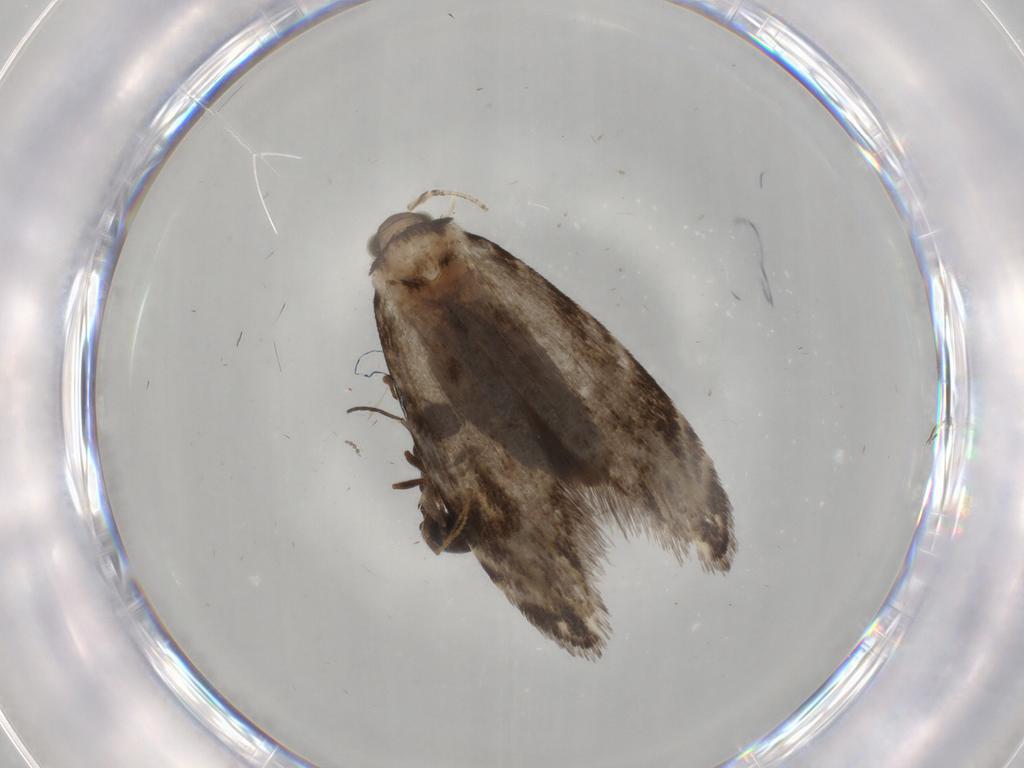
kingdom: Animalia
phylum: Arthropoda
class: Insecta
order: Lepidoptera
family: Tineidae
